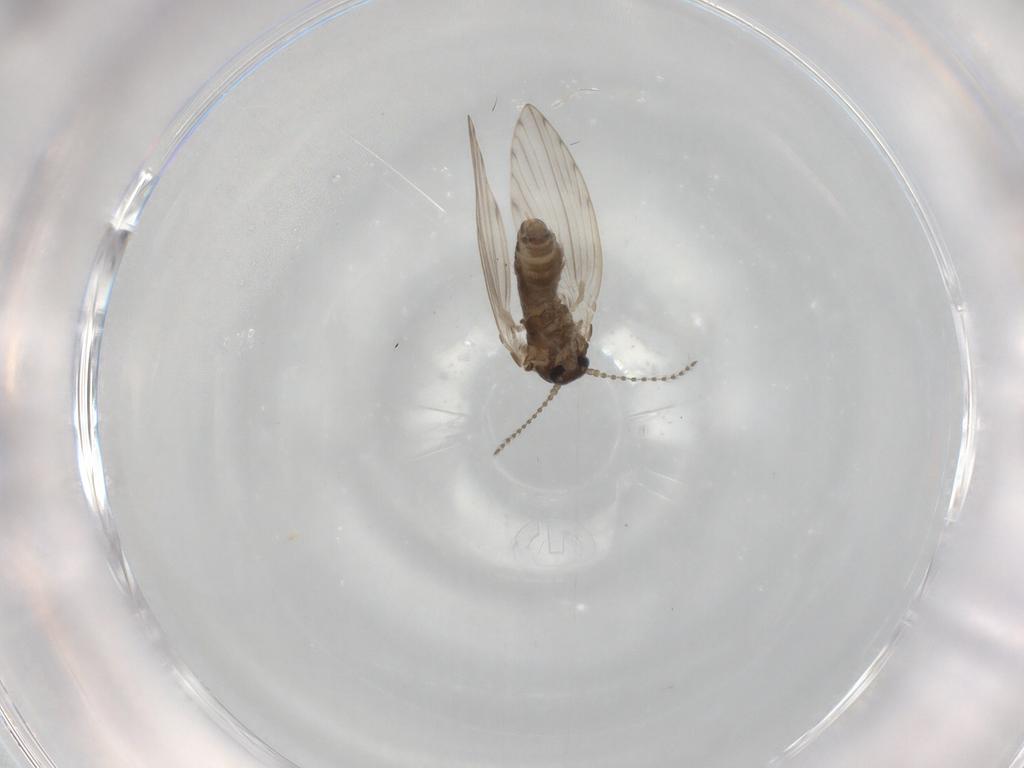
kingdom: Animalia
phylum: Arthropoda
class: Insecta
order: Diptera
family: Psychodidae
